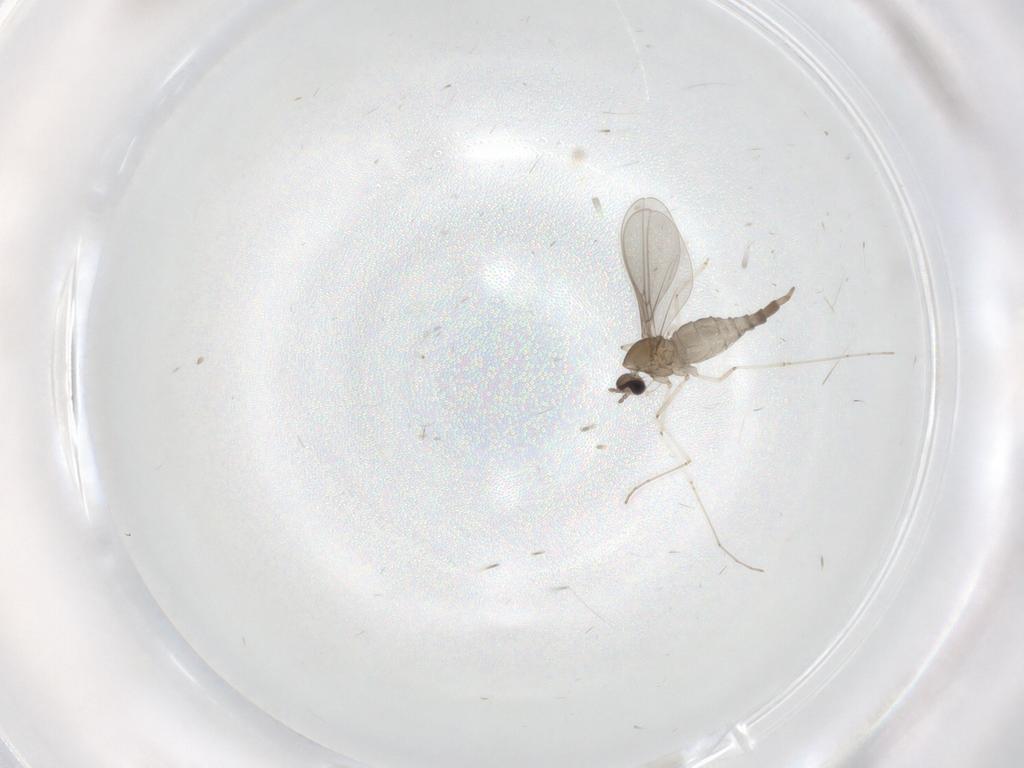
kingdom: Animalia
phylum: Arthropoda
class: Insecta
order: Diptera
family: Cecidomyiidae
